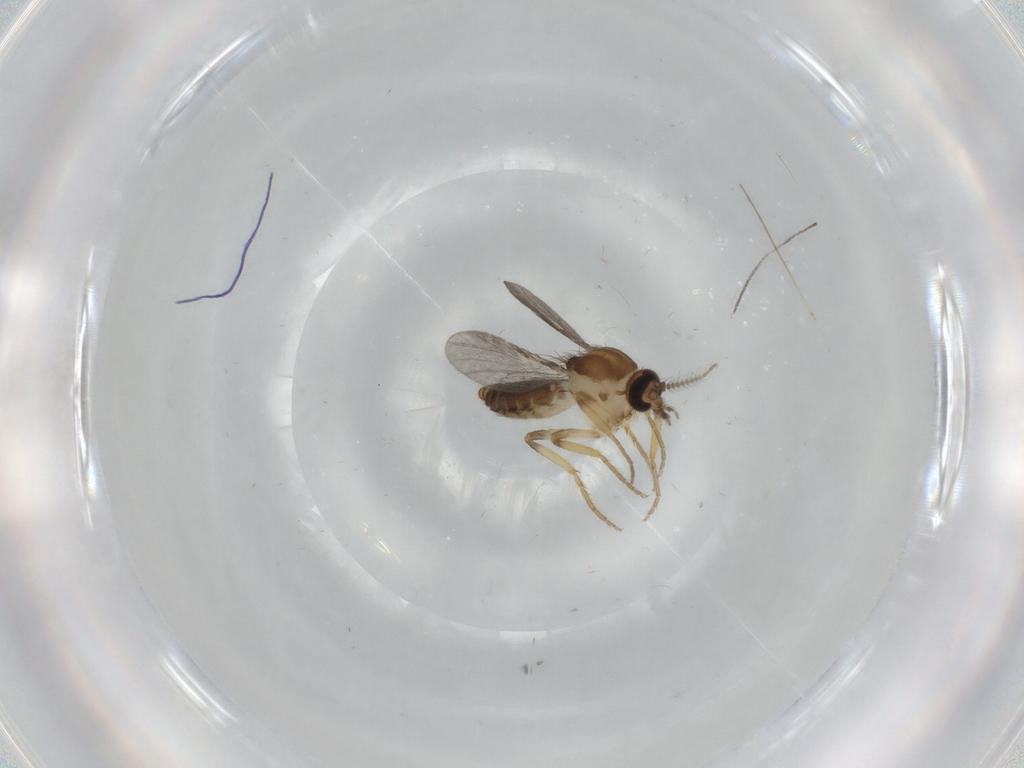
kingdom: Animalia
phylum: Arthropoda
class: Insecta
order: Diptera
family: Ceratopogonidae
